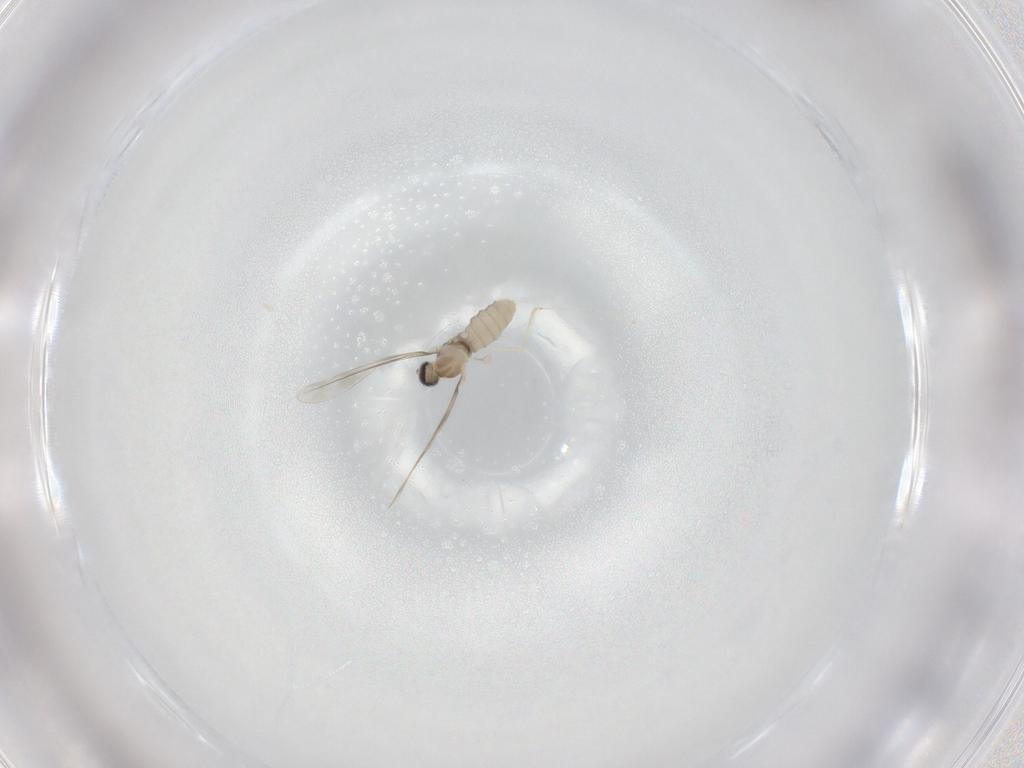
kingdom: Animalia
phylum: Arthropoda
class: Insecta
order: Diptera
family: Cecidomyiidae
